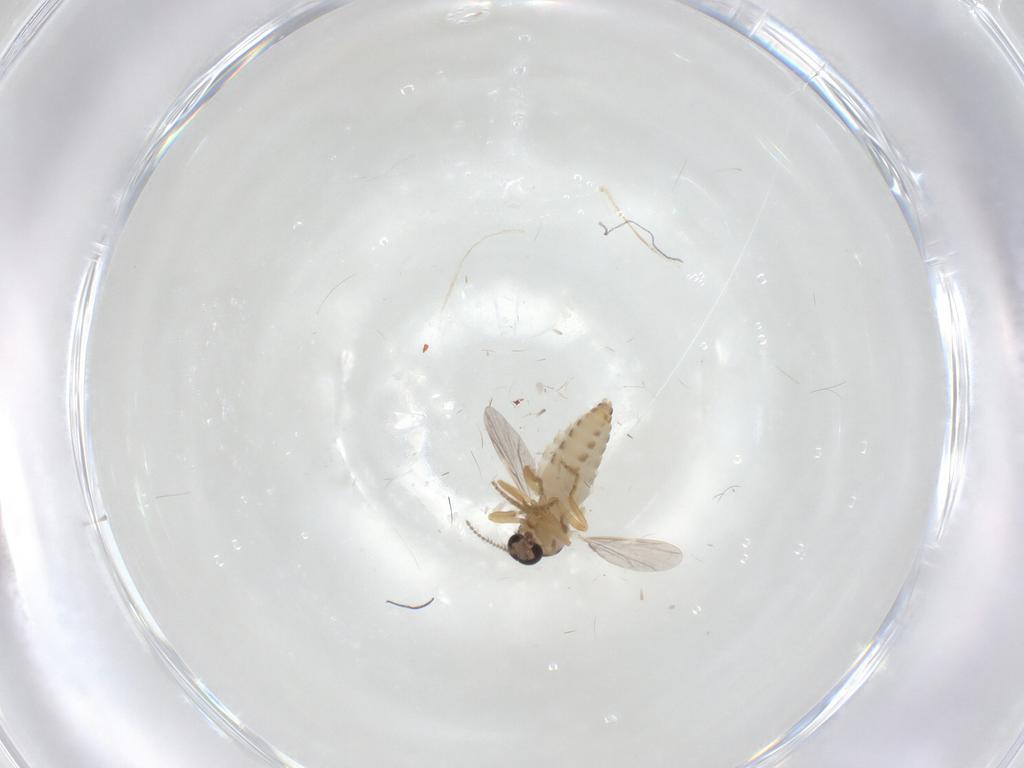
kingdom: Animalia
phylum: Arthropoda
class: Insecta
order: Diptera
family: Ceratopogonidae
